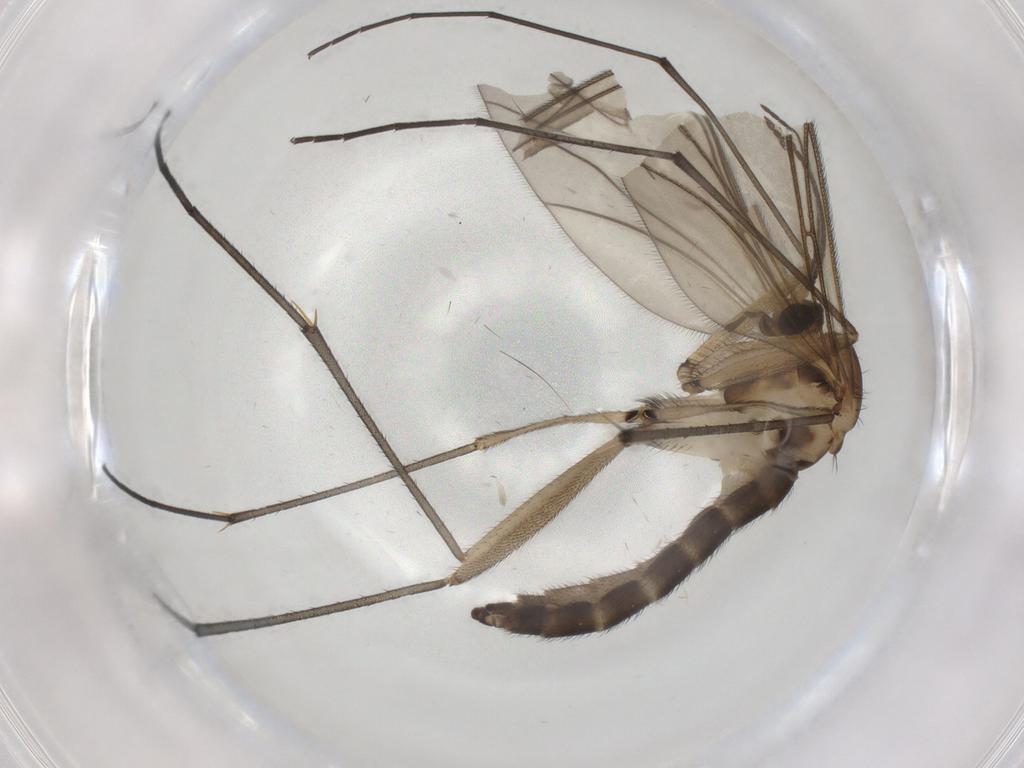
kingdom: Animalia
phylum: Arthropoda
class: Insecta
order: Diptera
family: Sciaridae
